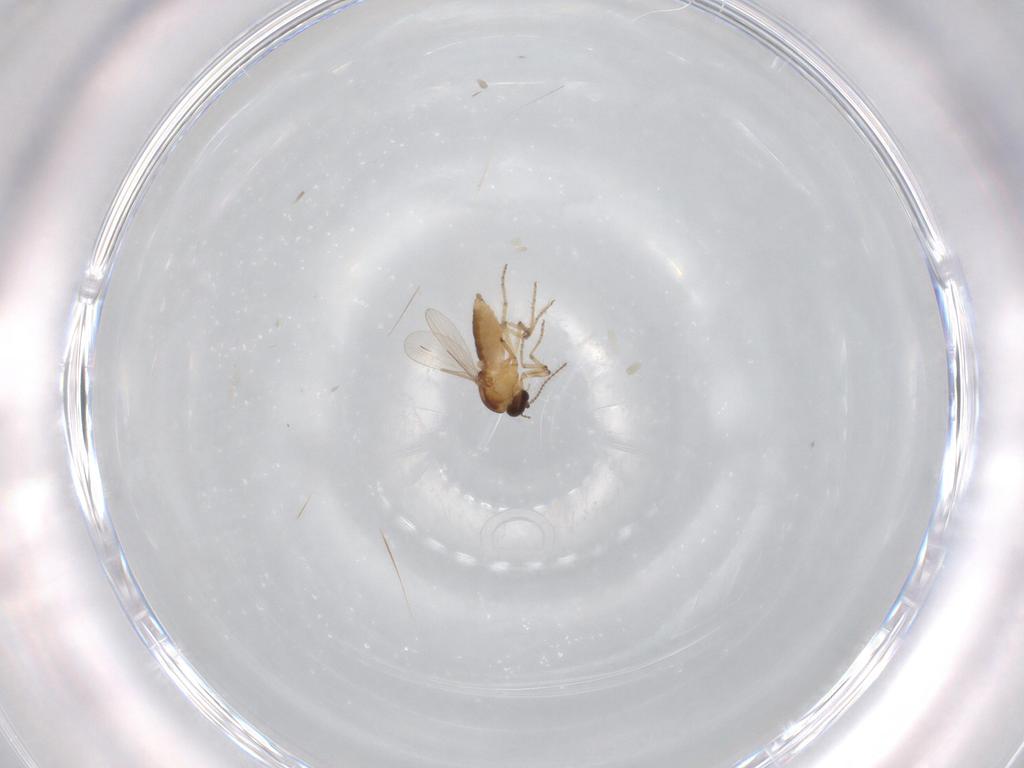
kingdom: Animalia
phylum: Arthropoda
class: Insecta
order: Diptera
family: Ceratopogonidae
